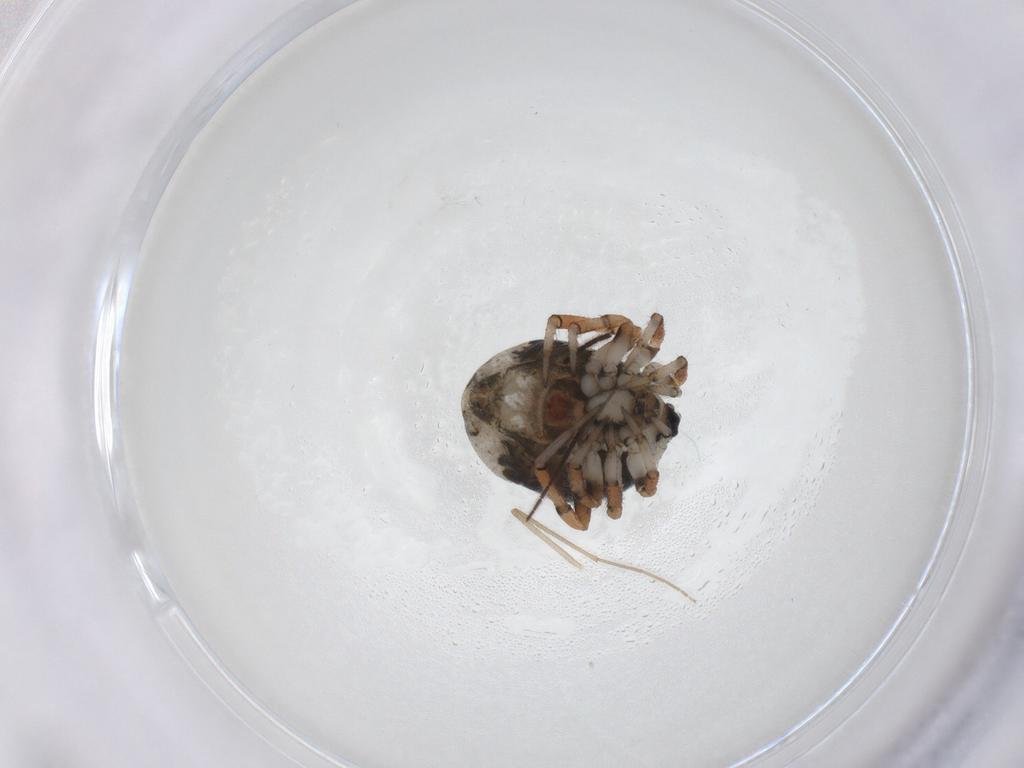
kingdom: Animalia
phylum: Arthropoda
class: Arachnida
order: Araneae
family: Theridiidae
